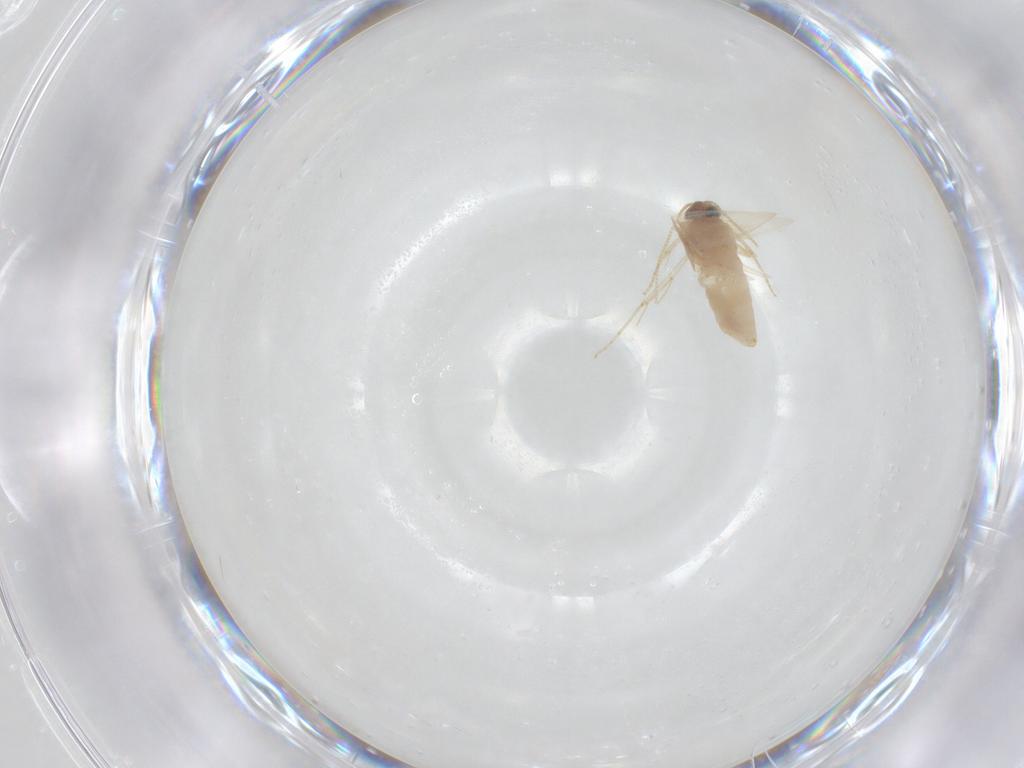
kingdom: Animalia
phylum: Arthropoda
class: Insecta
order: Lepidoptera
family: Nepticulidae
